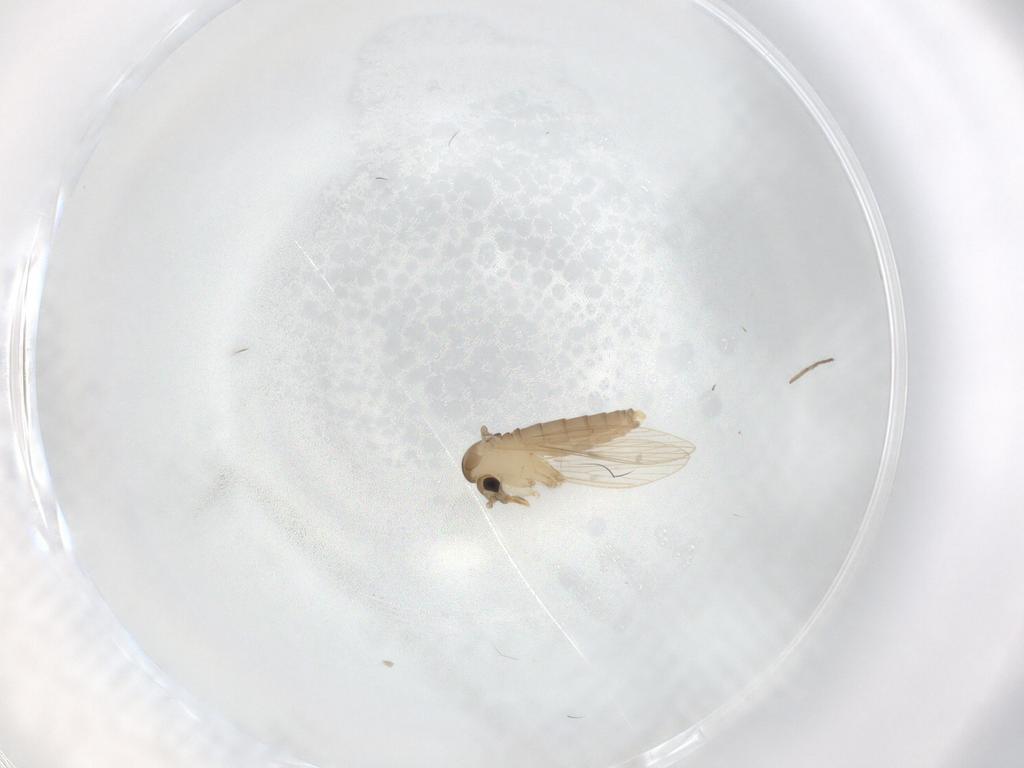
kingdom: Animalia
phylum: Arthropoda
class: Insecta
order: Diptera
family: Psychodidae
